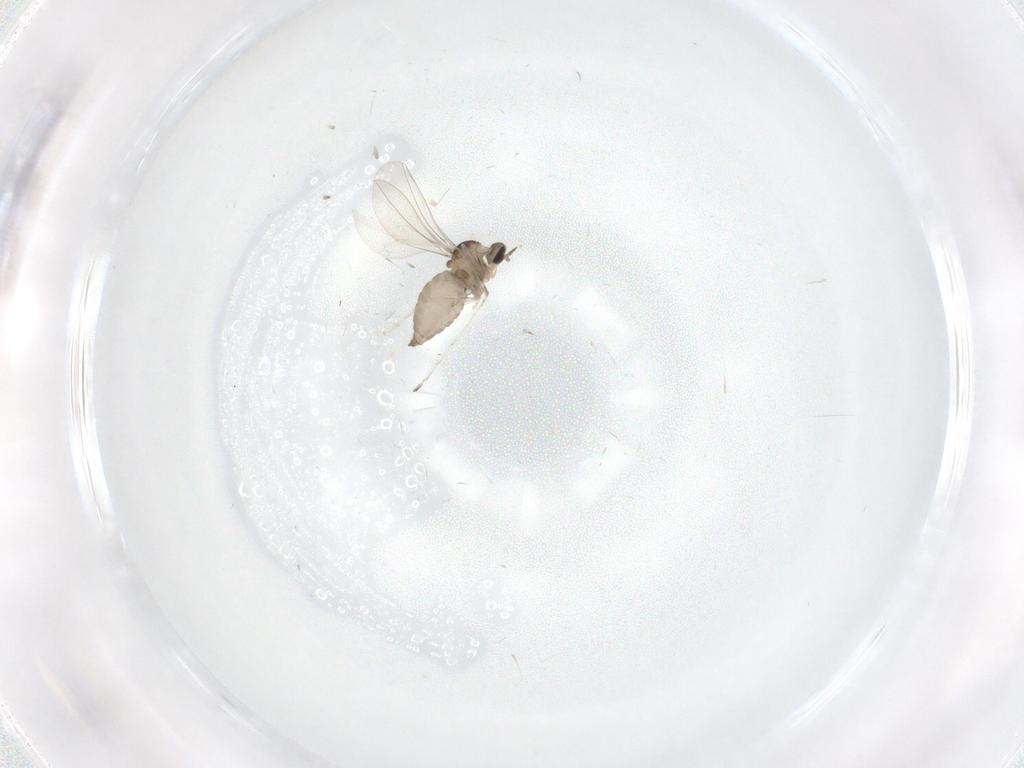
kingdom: Animalia
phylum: Arthropoda
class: Insecta
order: Diptera
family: Cecidomyiidae
